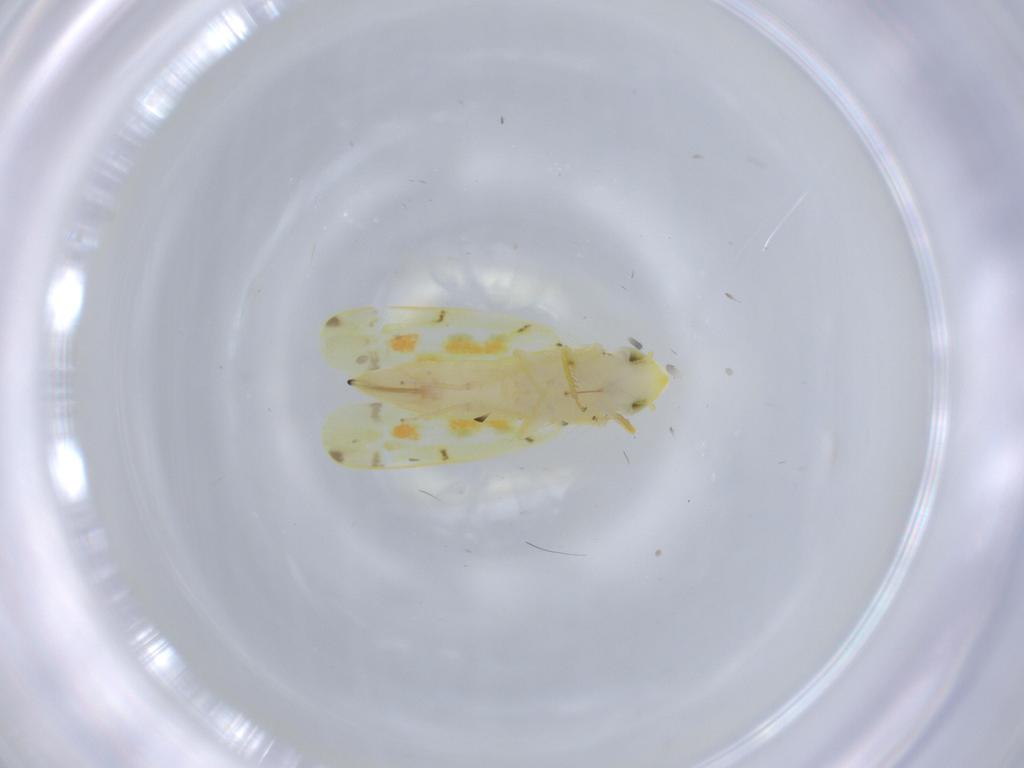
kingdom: Animalia
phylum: Arthropoda
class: Insecta
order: Hemiptera
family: Cicadellidae
